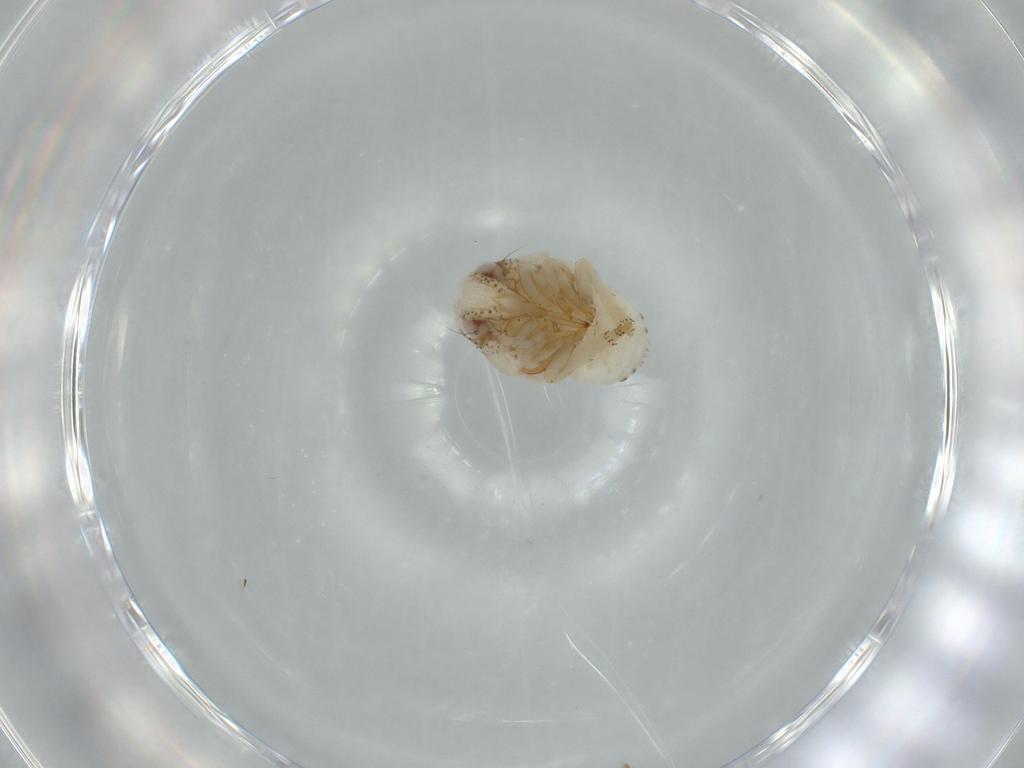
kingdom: Animalia
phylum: Arthropoda
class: Insecta
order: Hemiptera
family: Acanaloniidae
